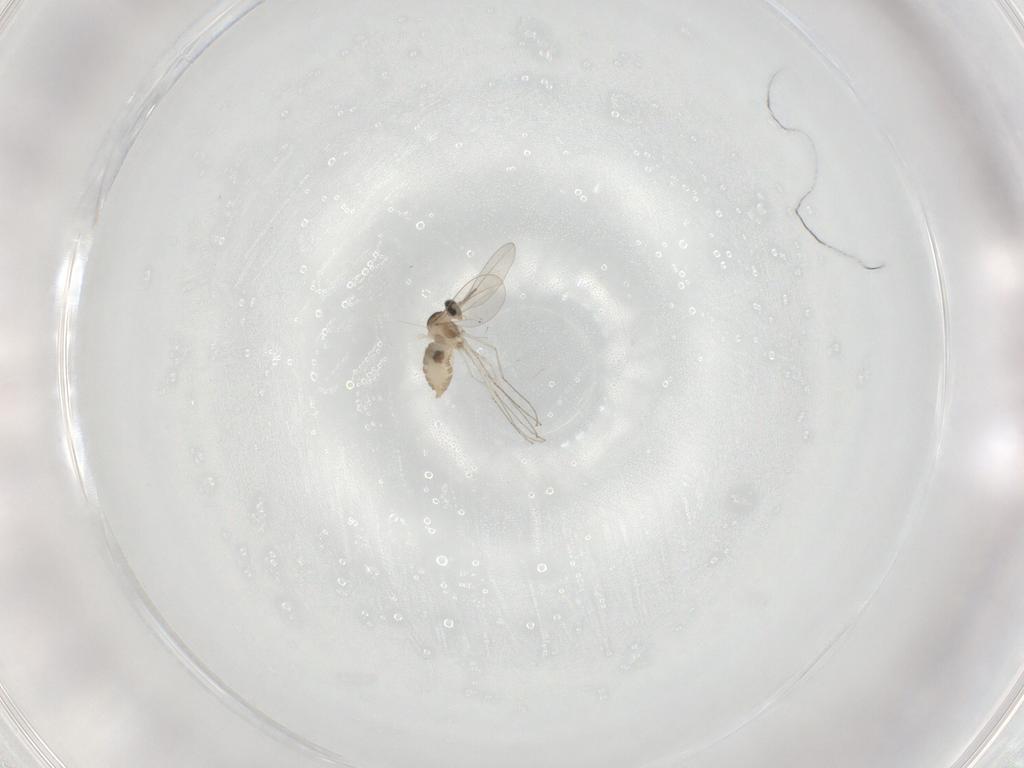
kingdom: Animalia
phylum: Arthropoda
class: Insecta
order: Diptera
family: Cecidomyiidae
